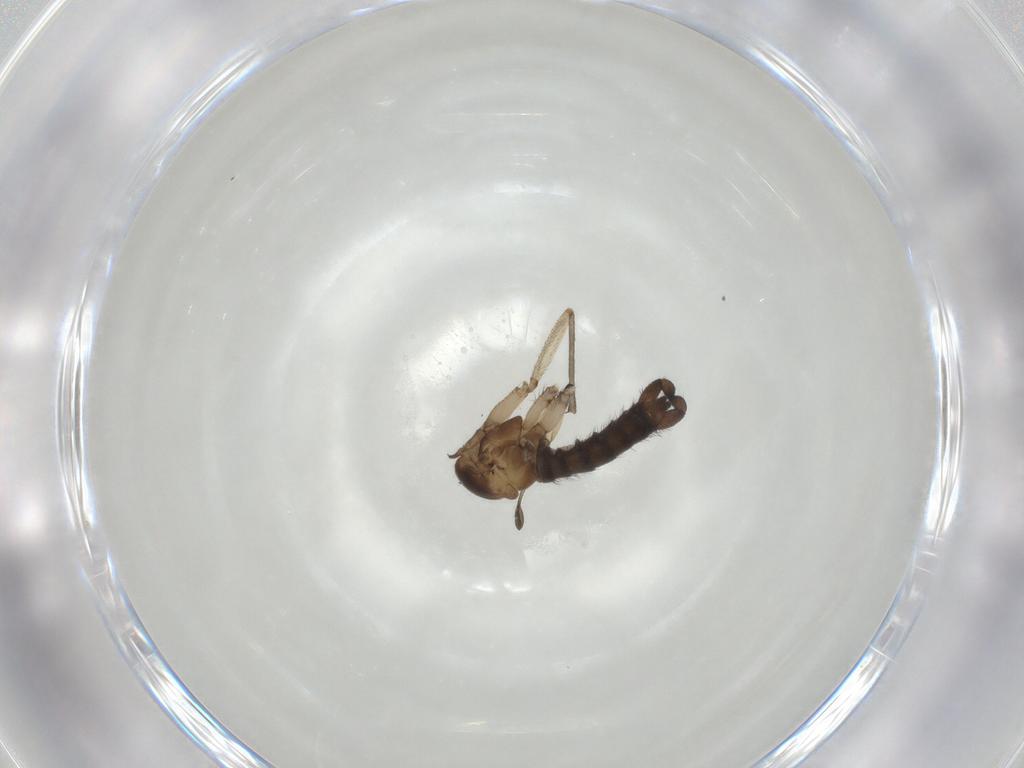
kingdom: Animalia
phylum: Arthropoda
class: Insecta
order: Diptera
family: Sciaridae
